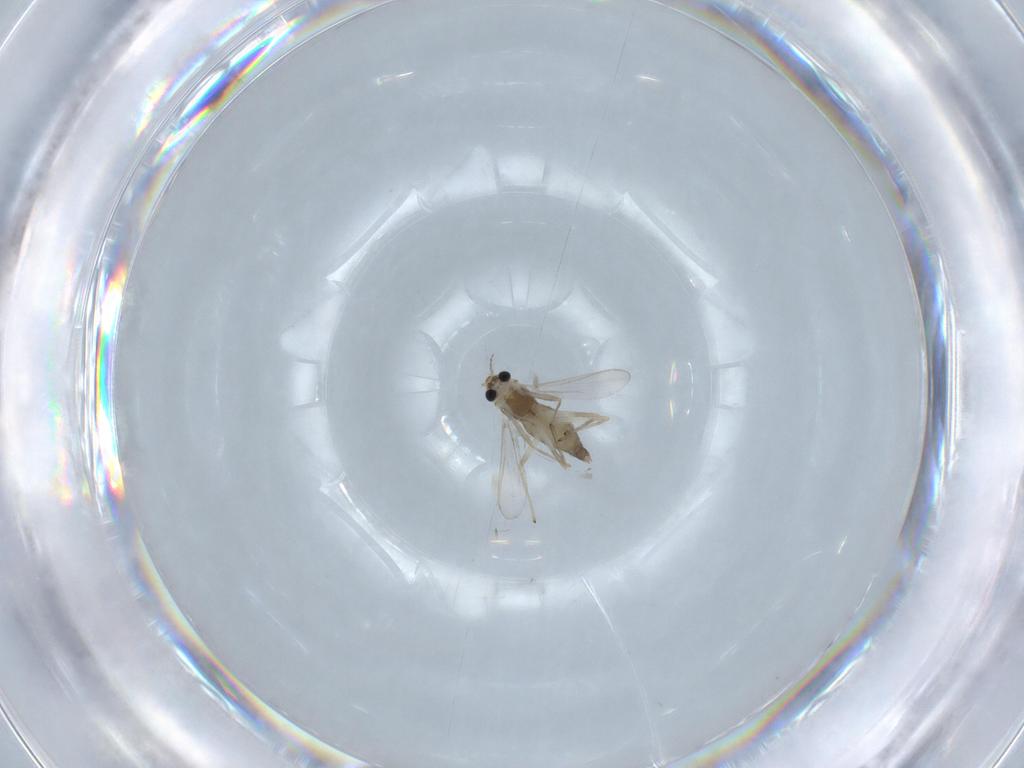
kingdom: Animalia
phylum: Arthropoda
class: Insecta
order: Diptera
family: Chironomidae
